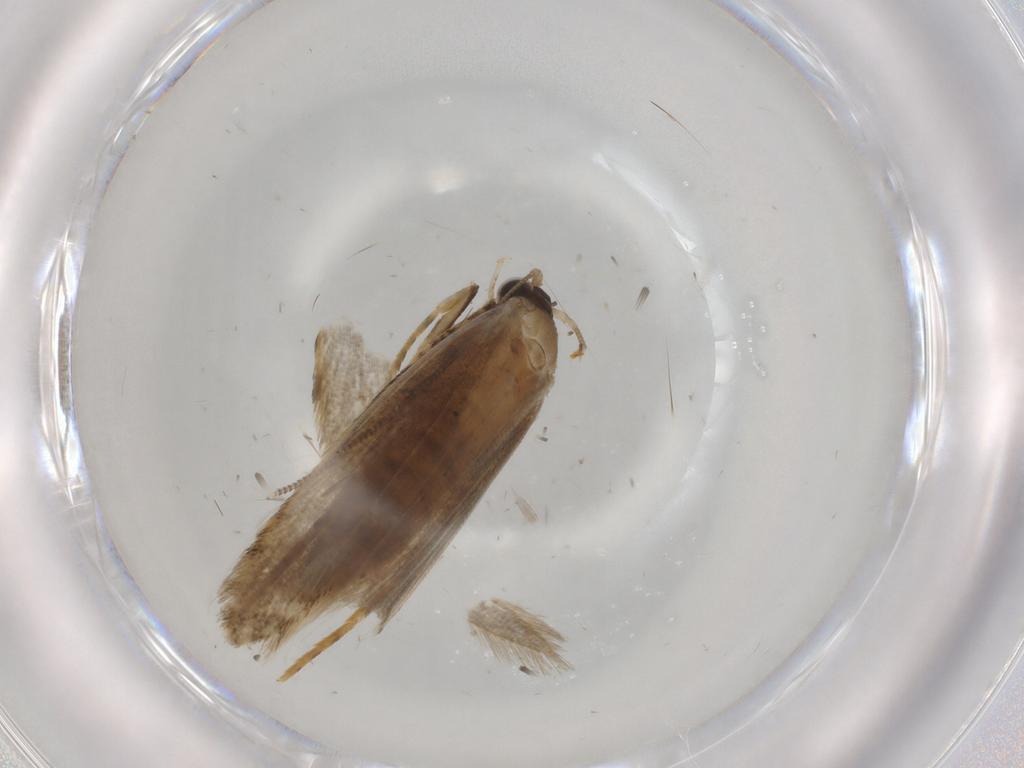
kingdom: Animalia
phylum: Arthropoda
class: Insecta
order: Lepidoptera
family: Tineidae
